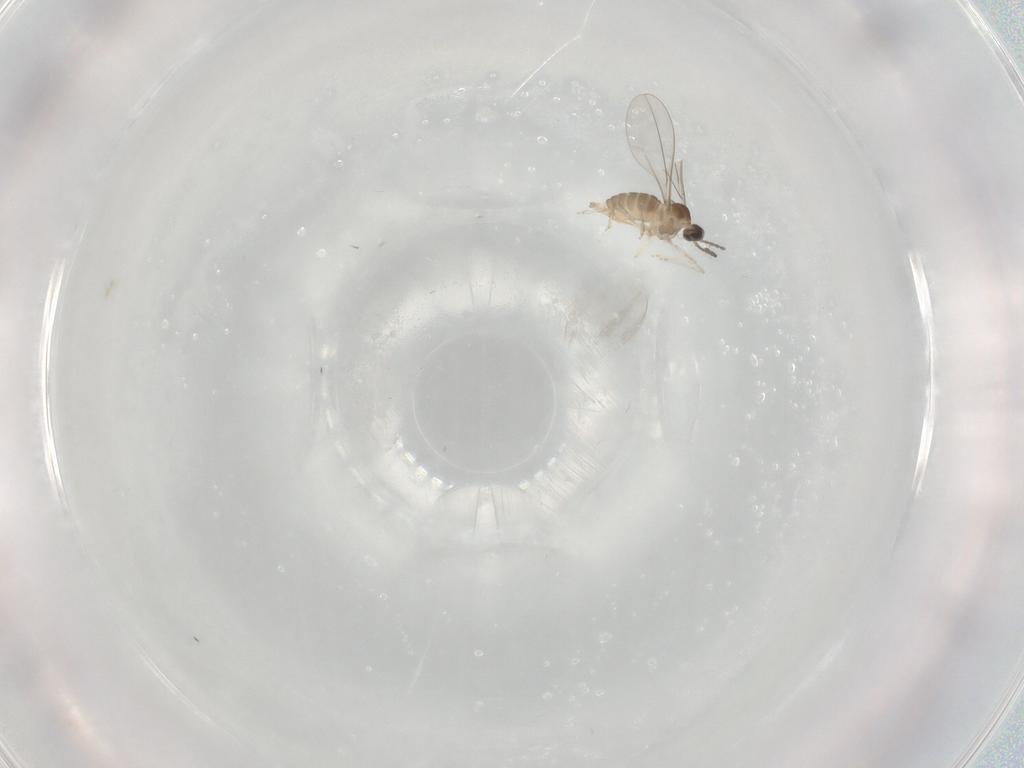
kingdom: Animalia
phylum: Arthropoda
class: Insecta
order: Diptera
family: Cecidomyiidae
